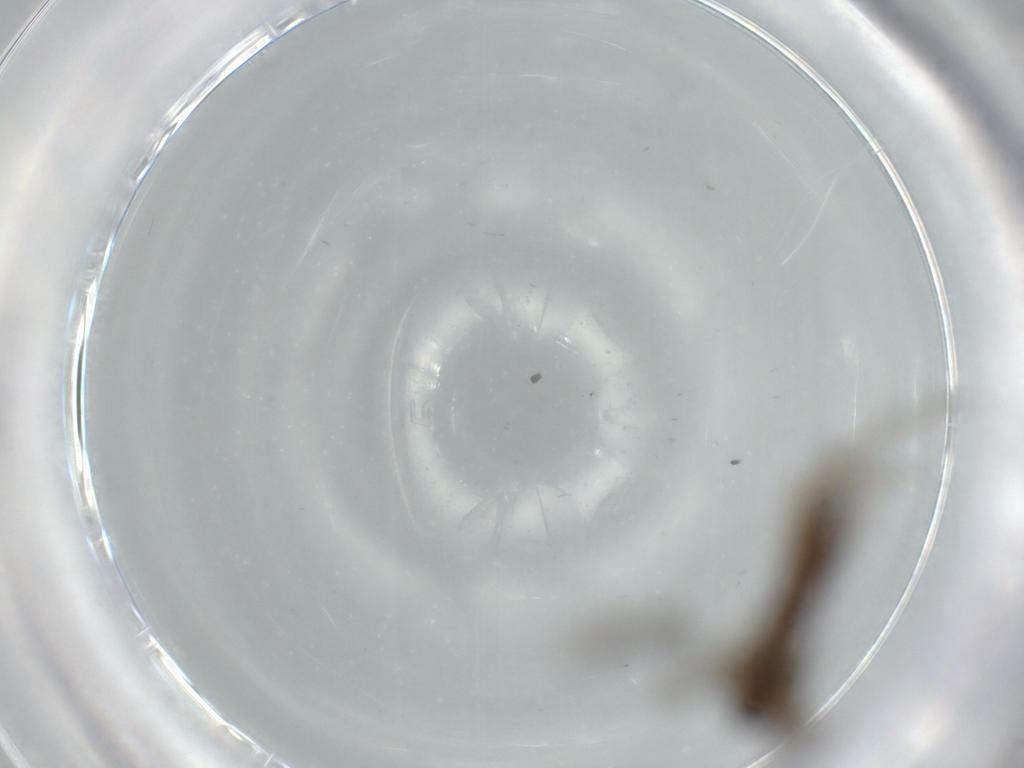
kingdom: Animalia
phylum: Arthropoda
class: Insecta
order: Diptera
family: Chironomidae
